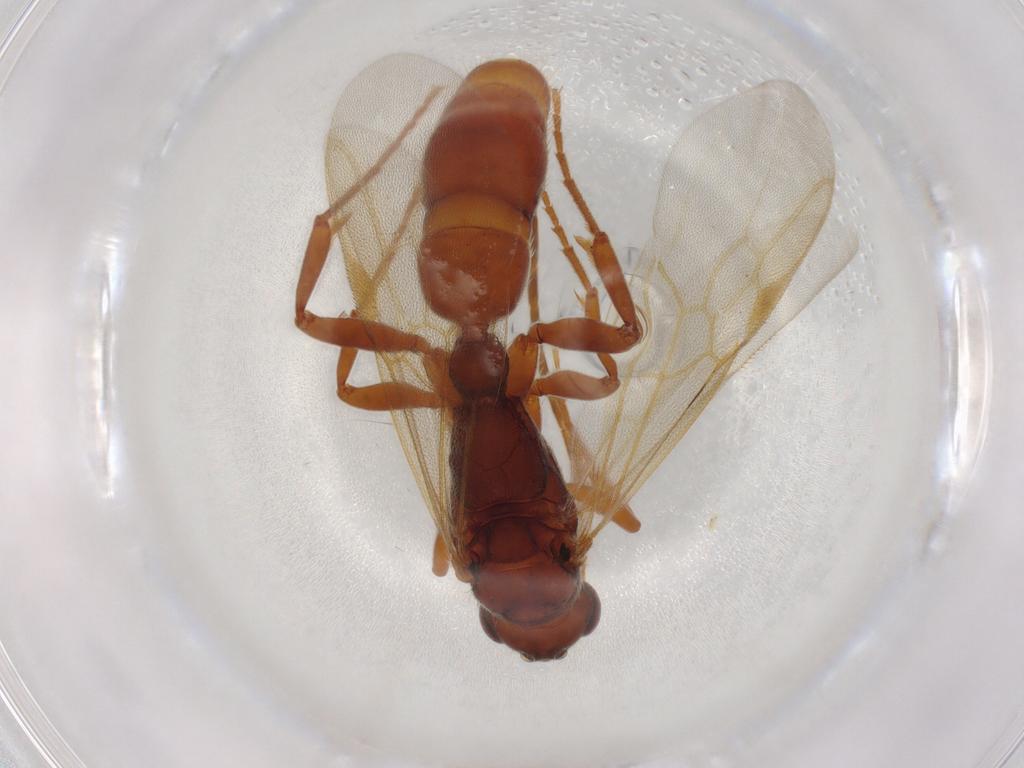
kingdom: Animalia
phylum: Arthropoda
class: Insecta
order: Hymenoptera
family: Formicidae
